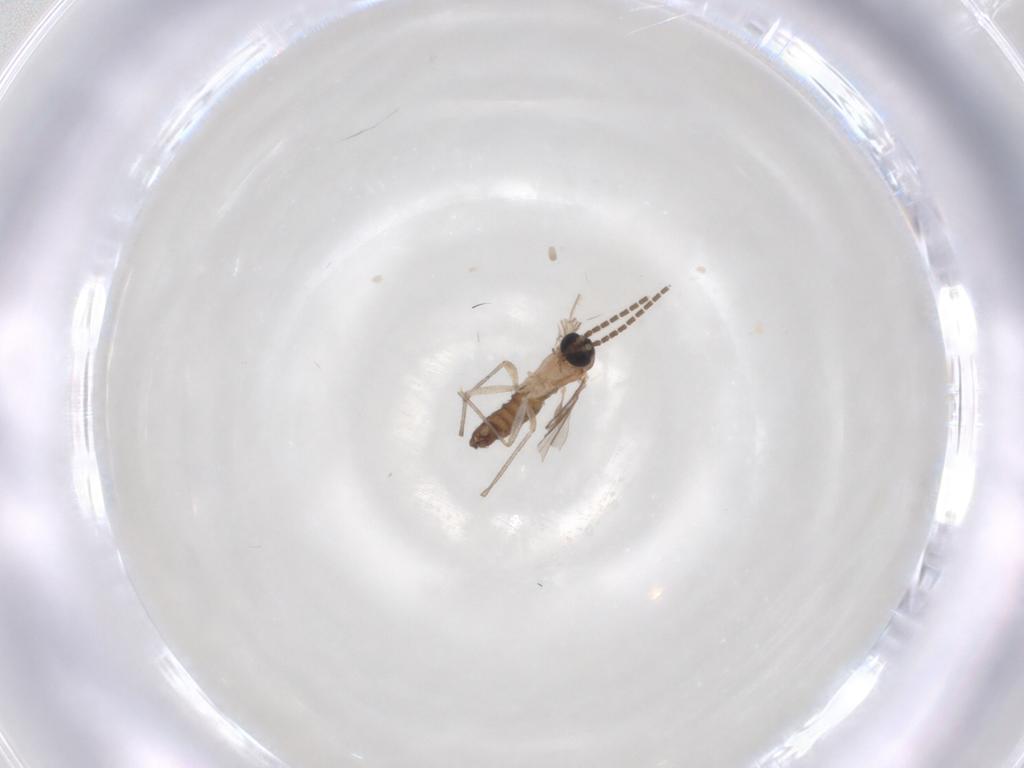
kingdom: Animalia
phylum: Arthropoda
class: Insecta
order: Diptera
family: Sciaridae
